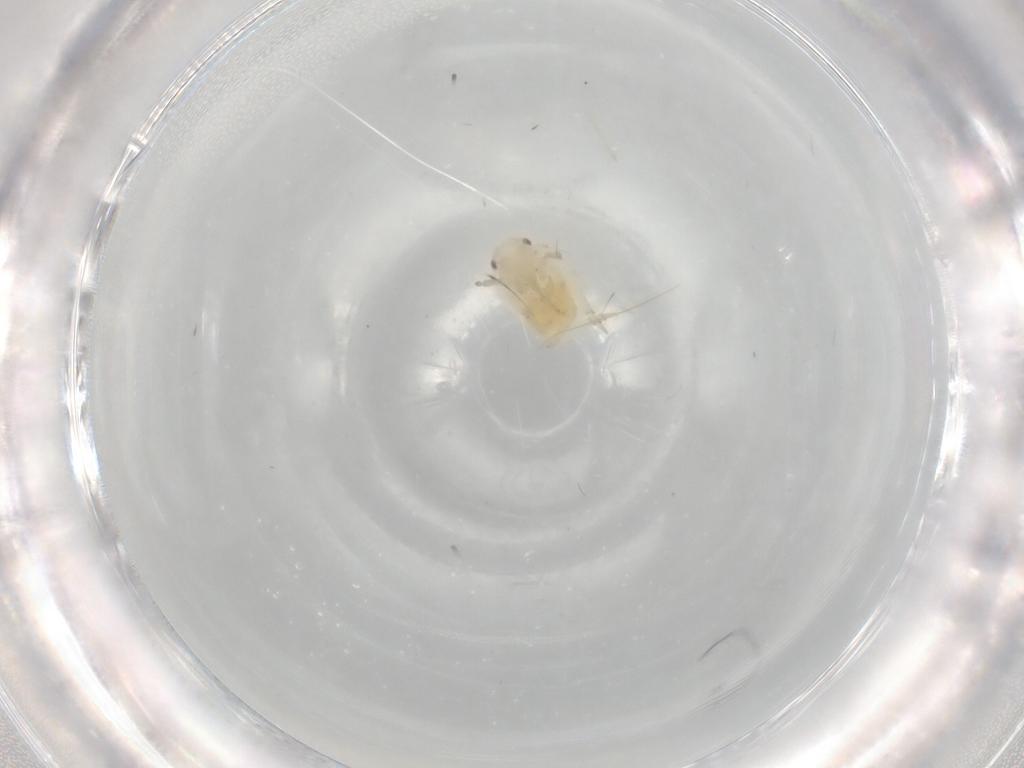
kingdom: Animalia
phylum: Arthropoda
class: Insecta
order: Hemiptera
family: Flatidae
